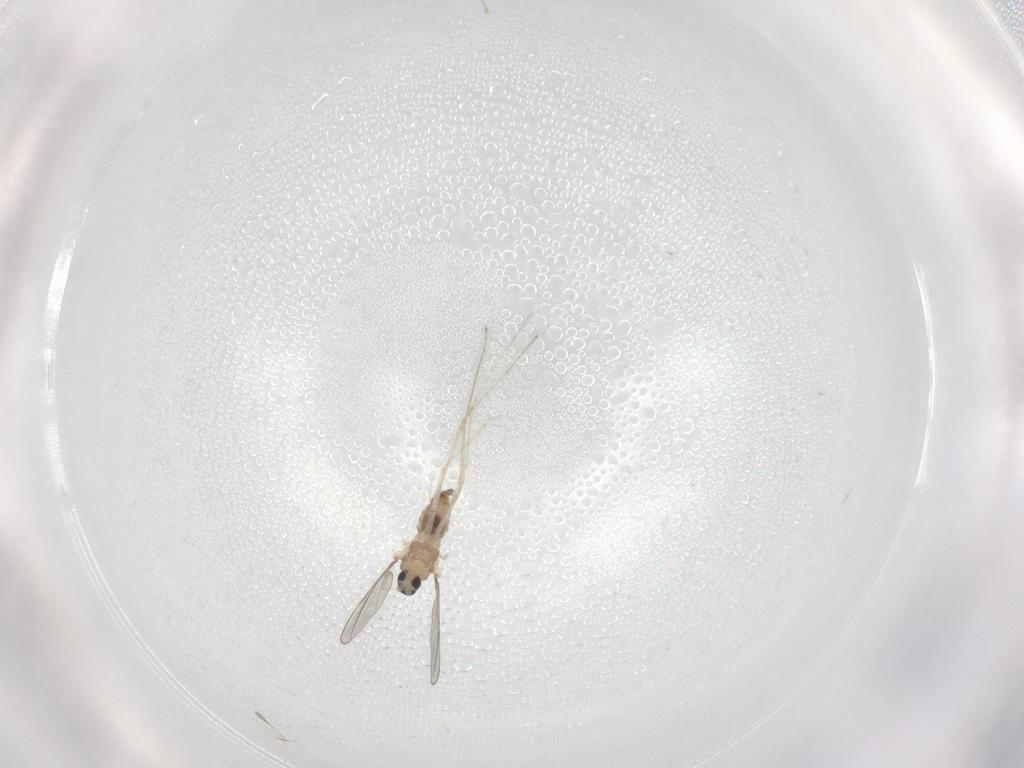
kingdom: Animalia
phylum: Arthropoda
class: Insecta
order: Diptera
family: Cecidomyiidae
